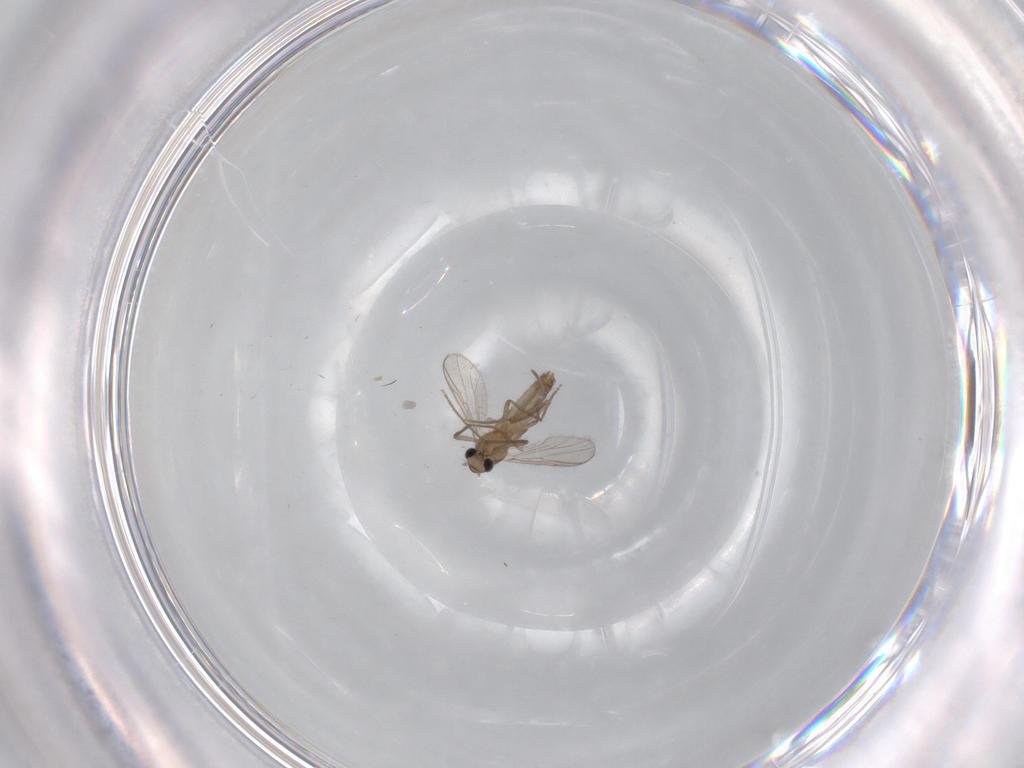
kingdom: Animalia
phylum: Arthropoda
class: Insecta
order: Diptera
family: Chironomidae
